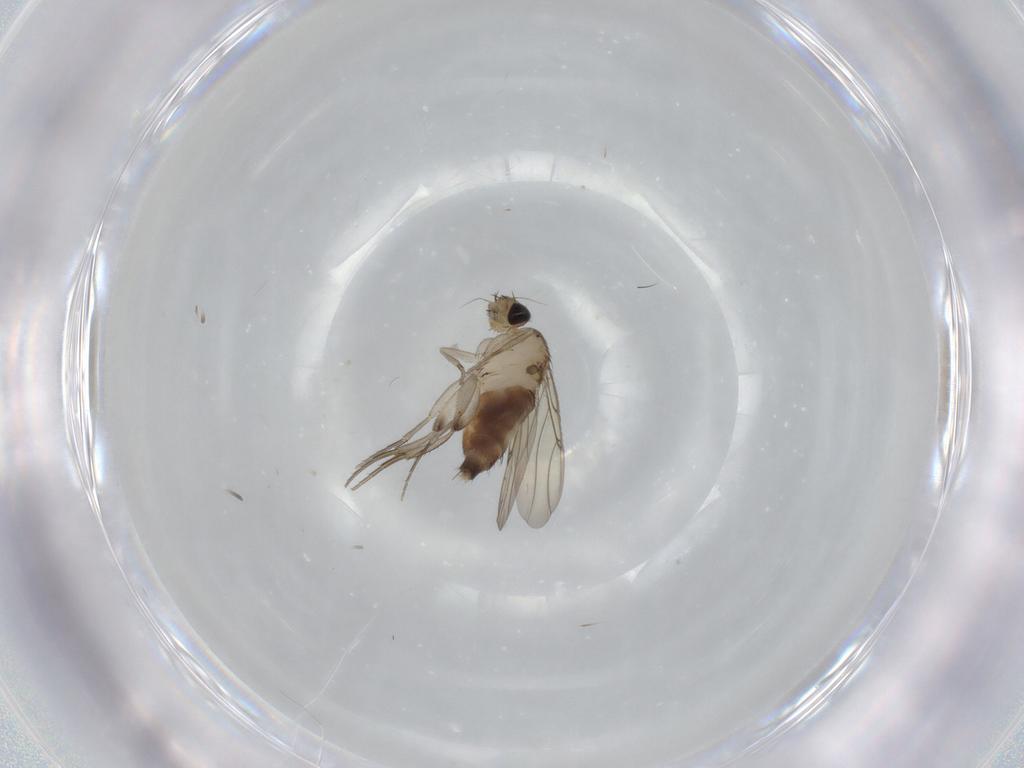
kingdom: Animalia
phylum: Arthropoda
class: Insecta
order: Diptera
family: Phoridae
